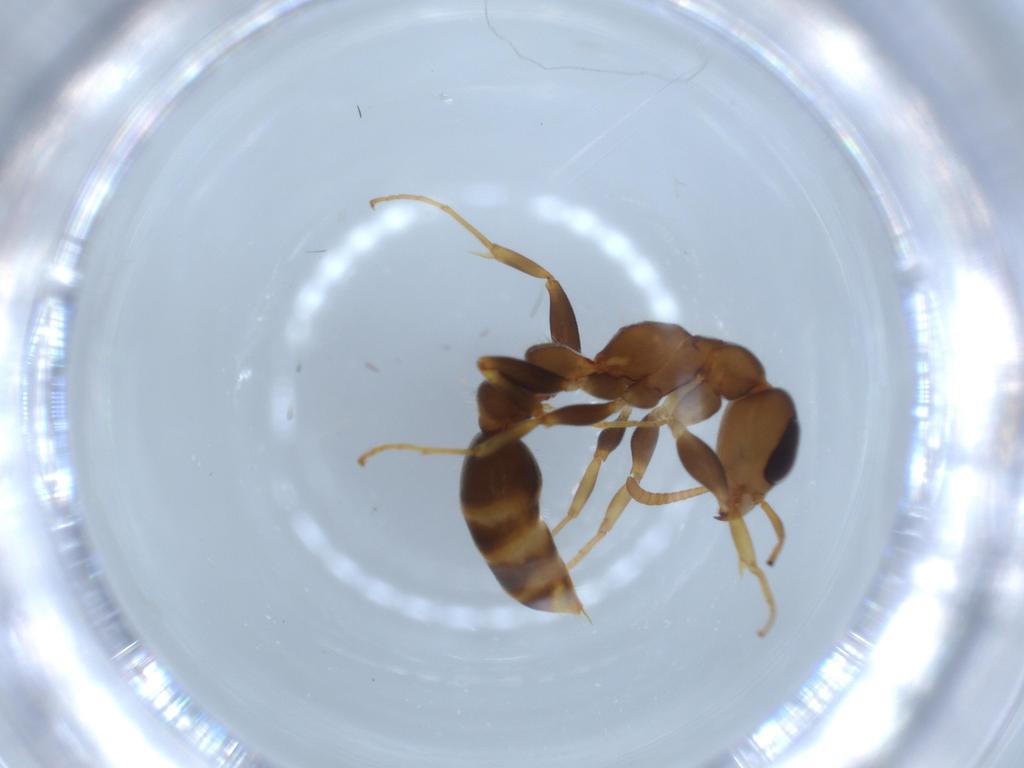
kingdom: Animalia
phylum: Arthropoda
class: Insecta
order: Hymenoptera
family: Formicidae
